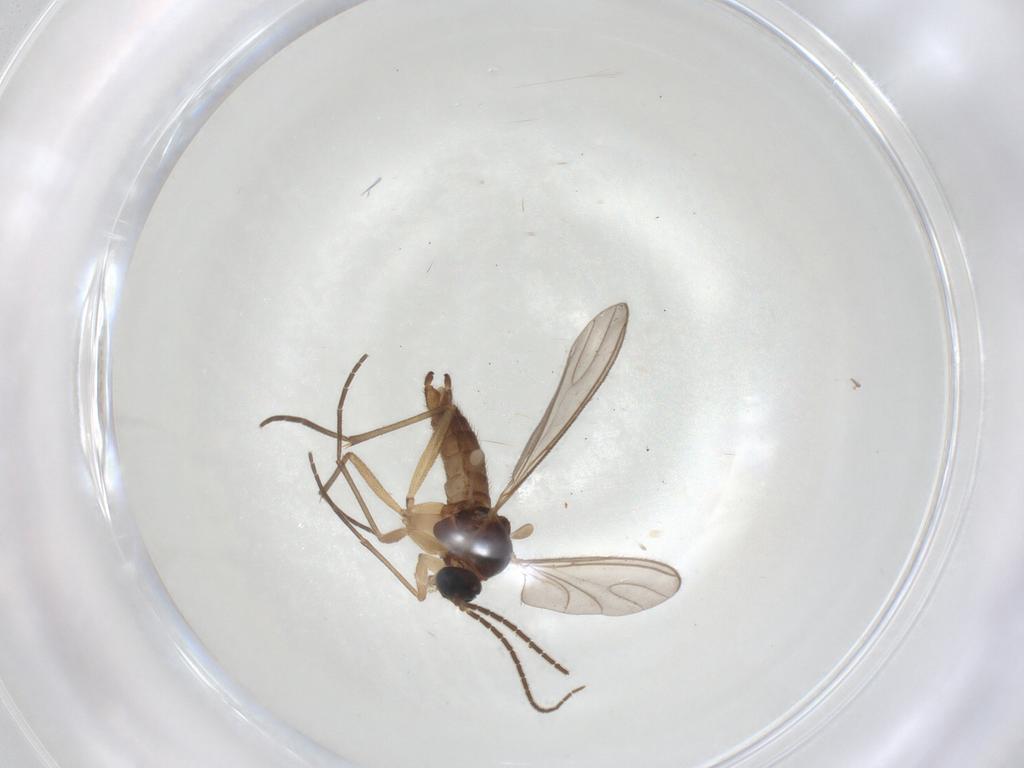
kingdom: Animalia
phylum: Arthropoda
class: Insecta
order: Diptera
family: Sciaridae
